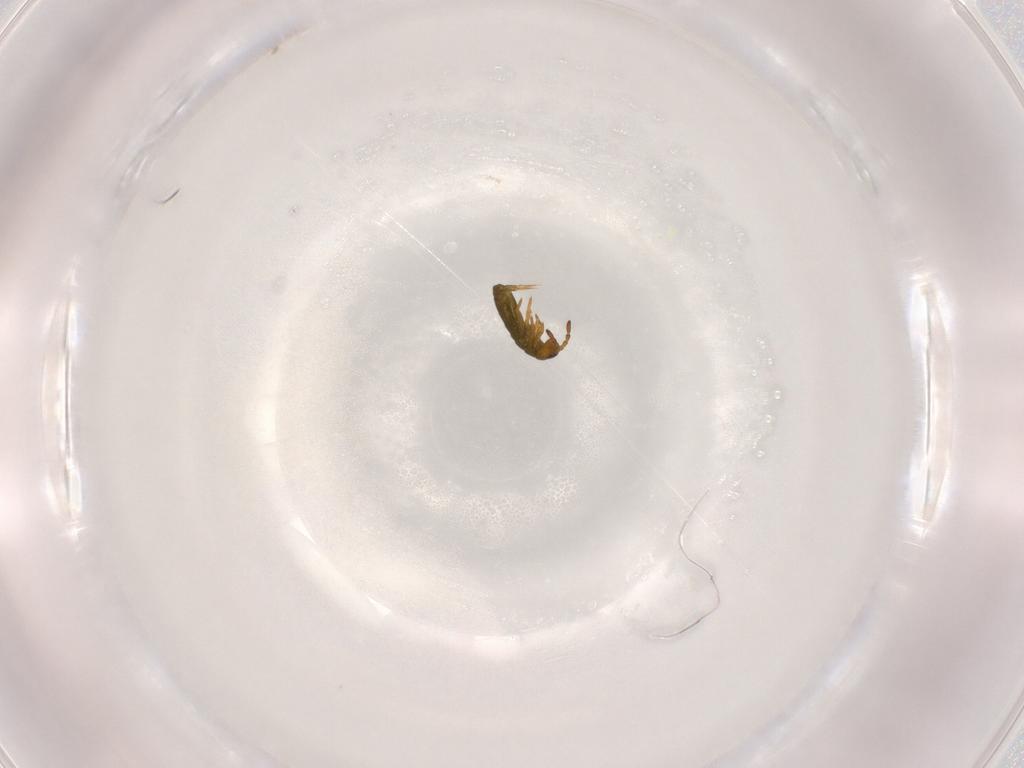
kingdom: Animalia
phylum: Arthropoda
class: Collembola
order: Entomobryomorpha
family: Isotomidae
